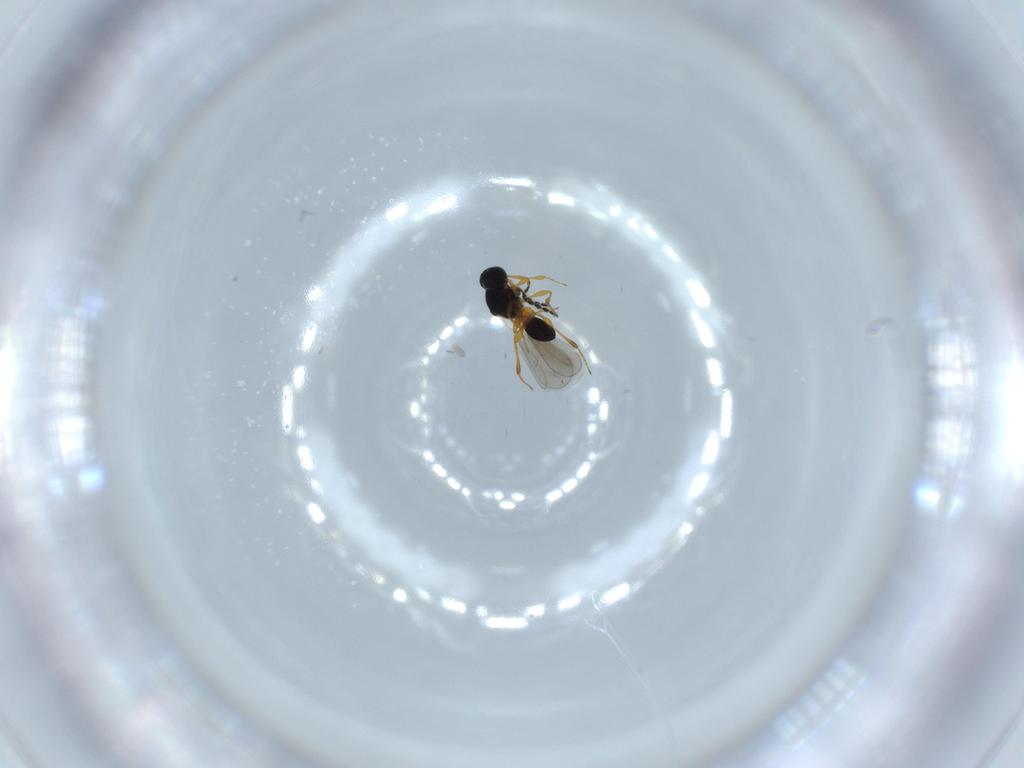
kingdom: Animalia
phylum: Arthropoda
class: Insecta
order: Hymenoptera
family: Platygastridae
